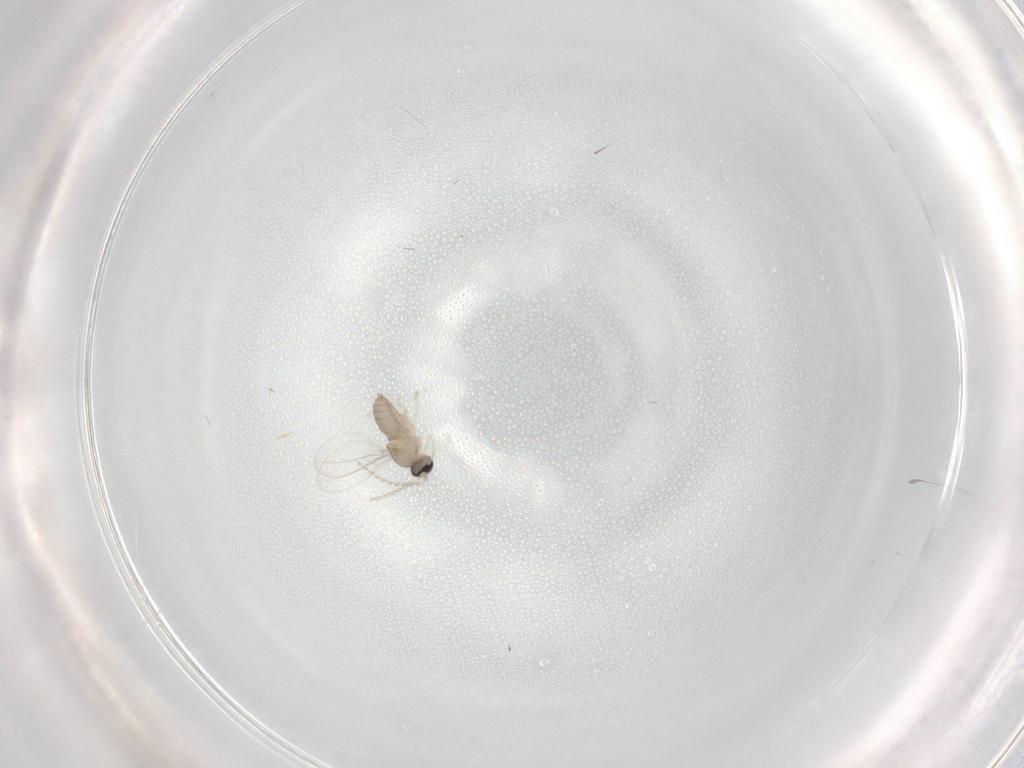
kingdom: Animalia
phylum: Arthropoda
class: Insecta
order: Diptera
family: Cecidomyiidae
